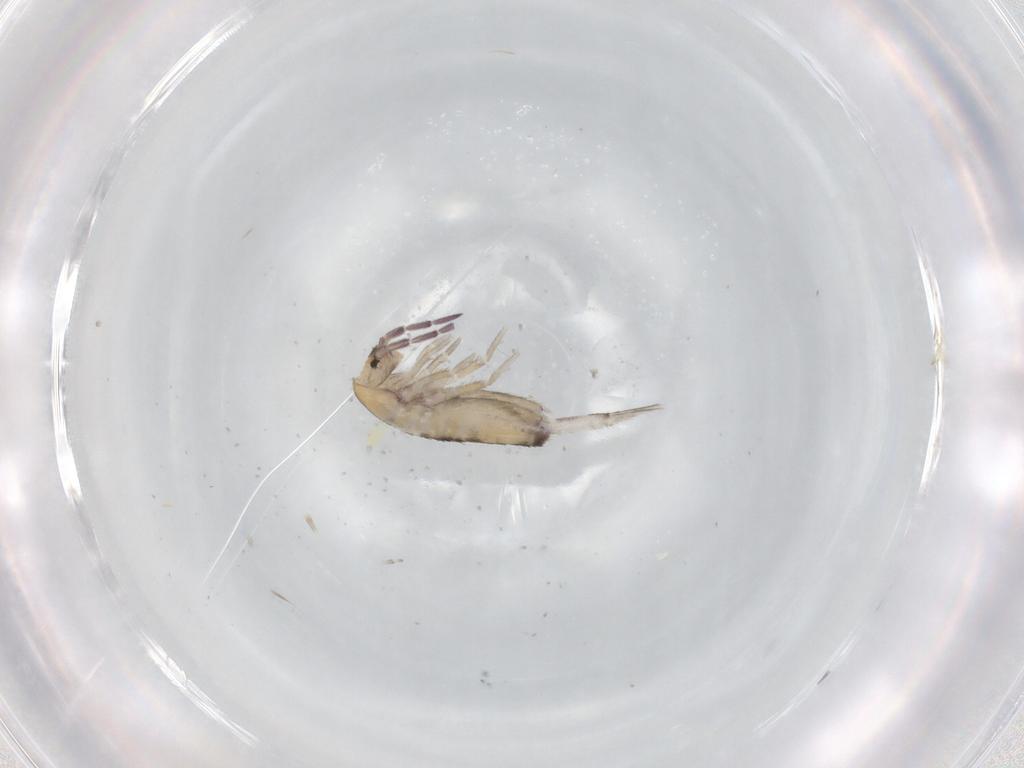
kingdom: Animalia
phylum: Arthropoda
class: Collembola
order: Entomobryomorpha
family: Entomobryidae
